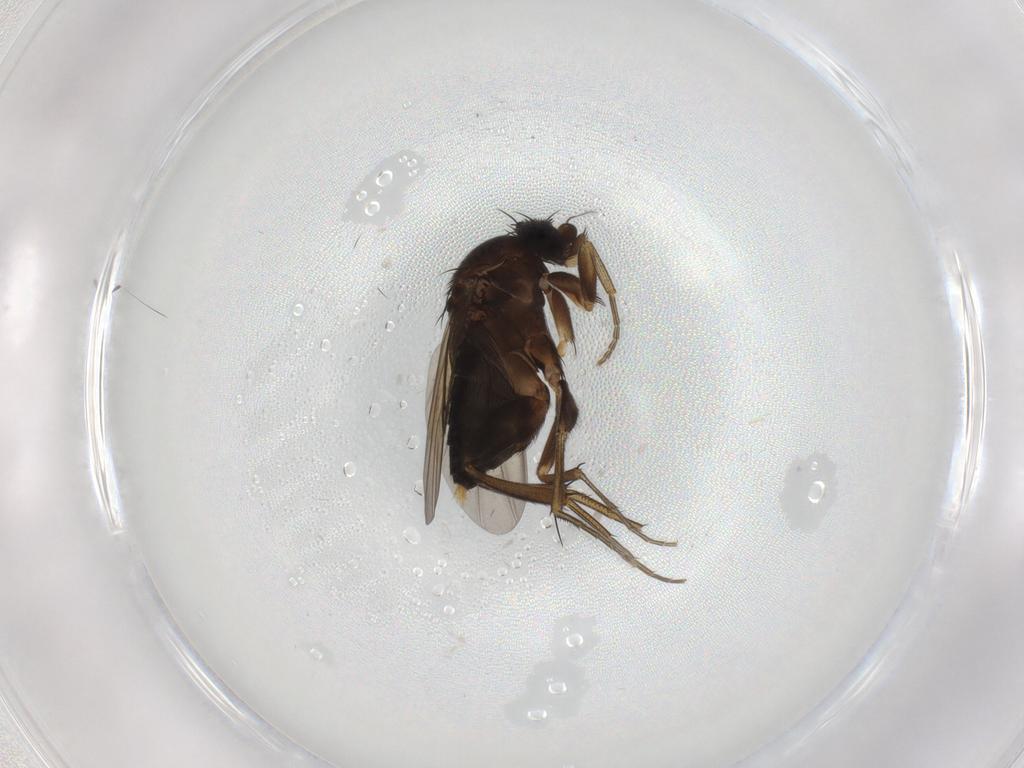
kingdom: Animalia
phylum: Arthropoda
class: Insecta
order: Diptera
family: Phoridae
